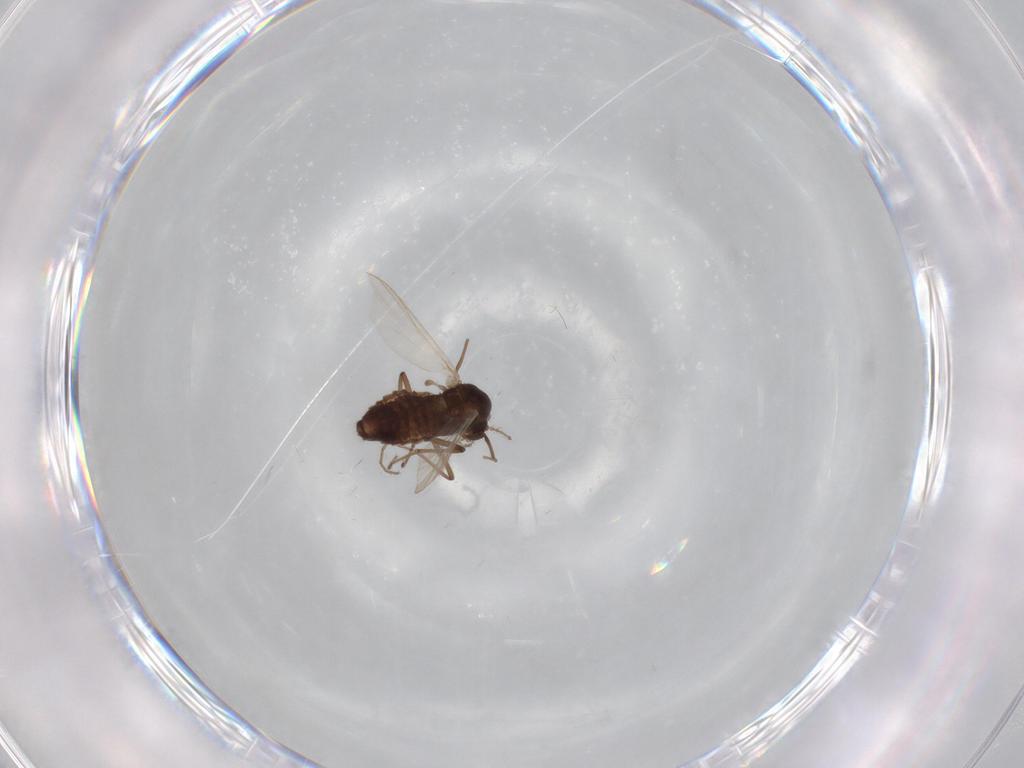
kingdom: Animalia
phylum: Arthropoda
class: Insecta
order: Diptera
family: Chironomidae
